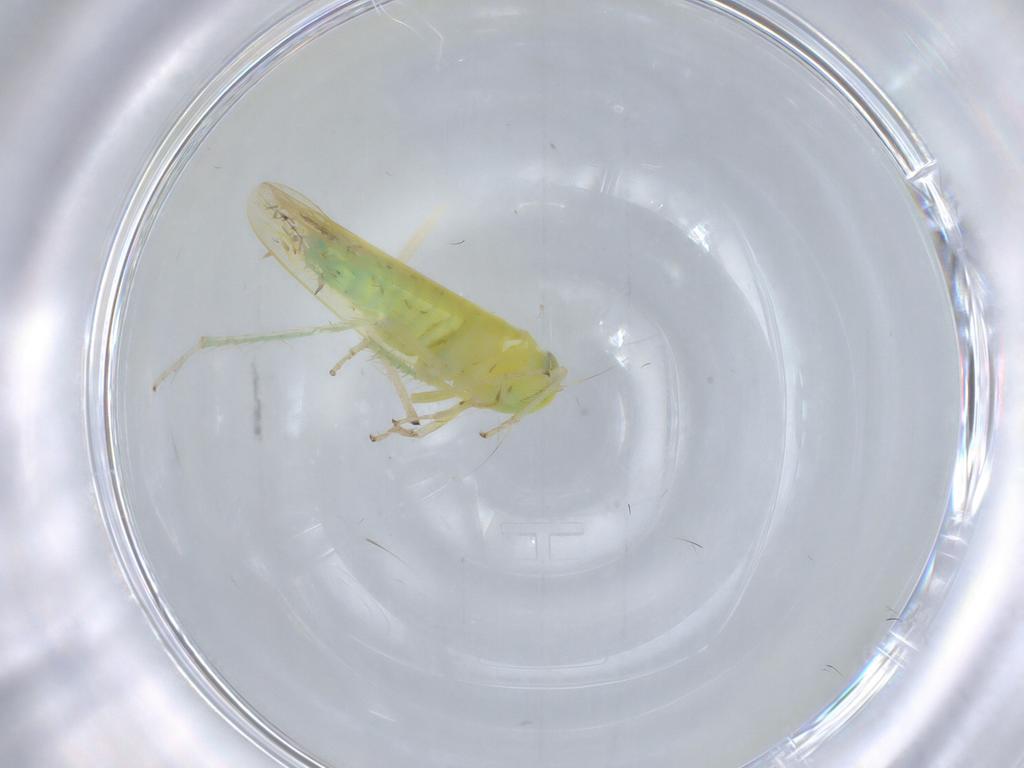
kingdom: Animalia
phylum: Arthropoda
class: Insecta
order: Hemiptera
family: Cicadellidae
